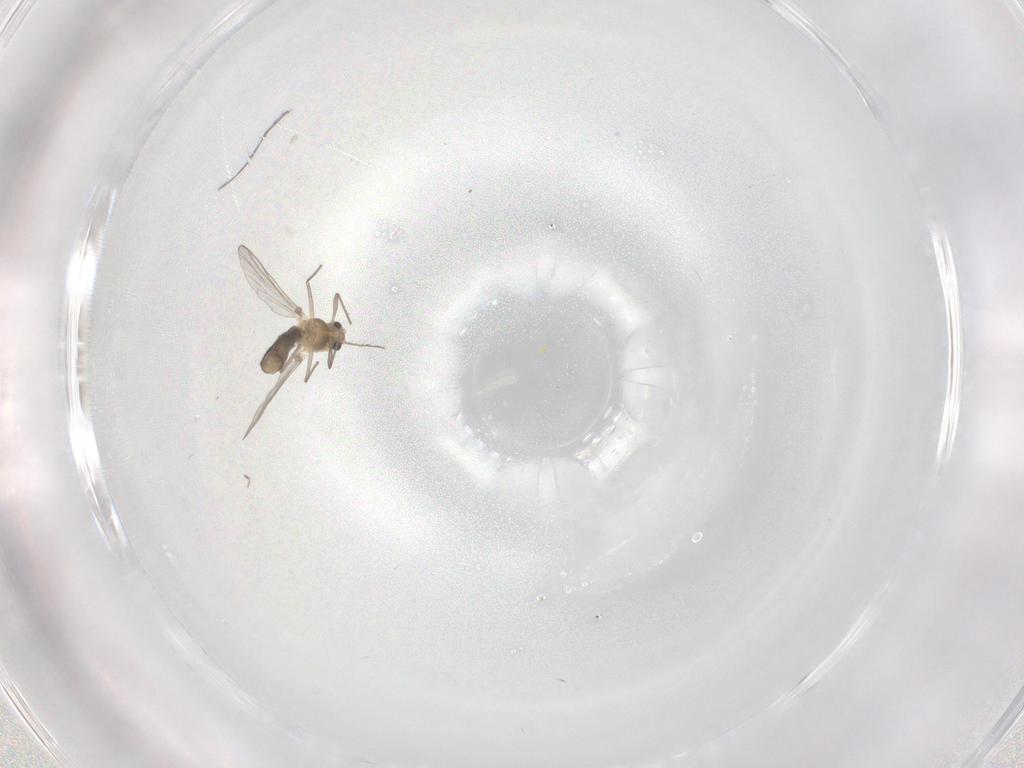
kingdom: Animalia
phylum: Arthropoda
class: Insecta
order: Diptera
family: Chironomidae
